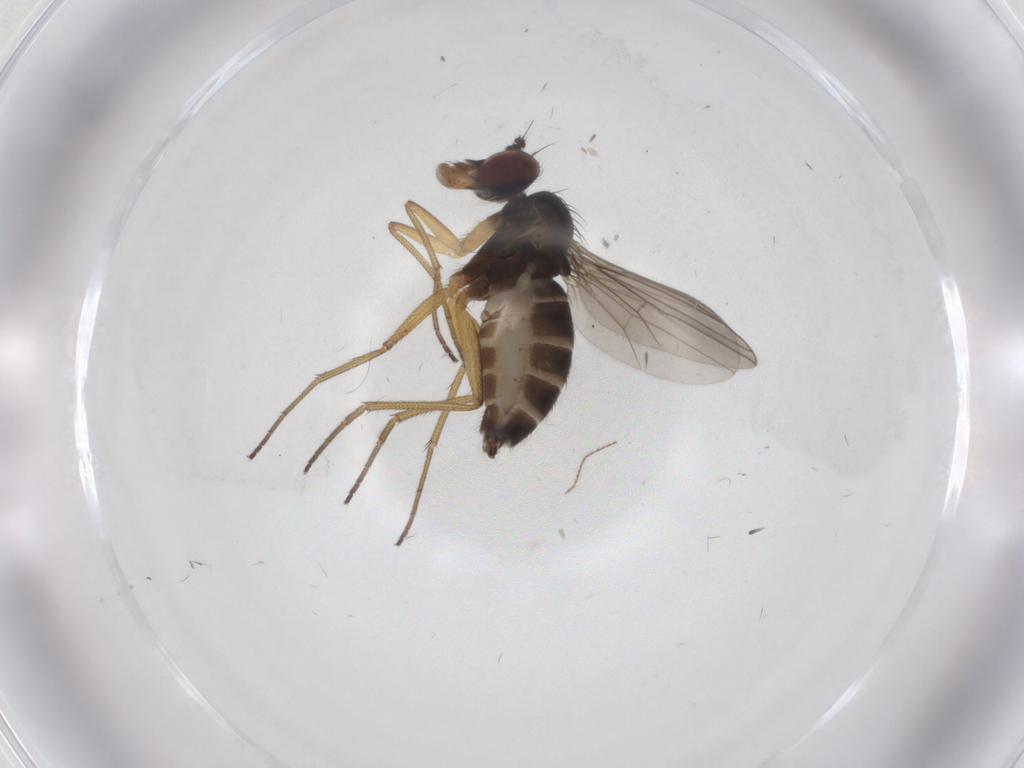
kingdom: Animalia
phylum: Arthropoda
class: Insecta
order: Diptera
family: Dolichopodidae
